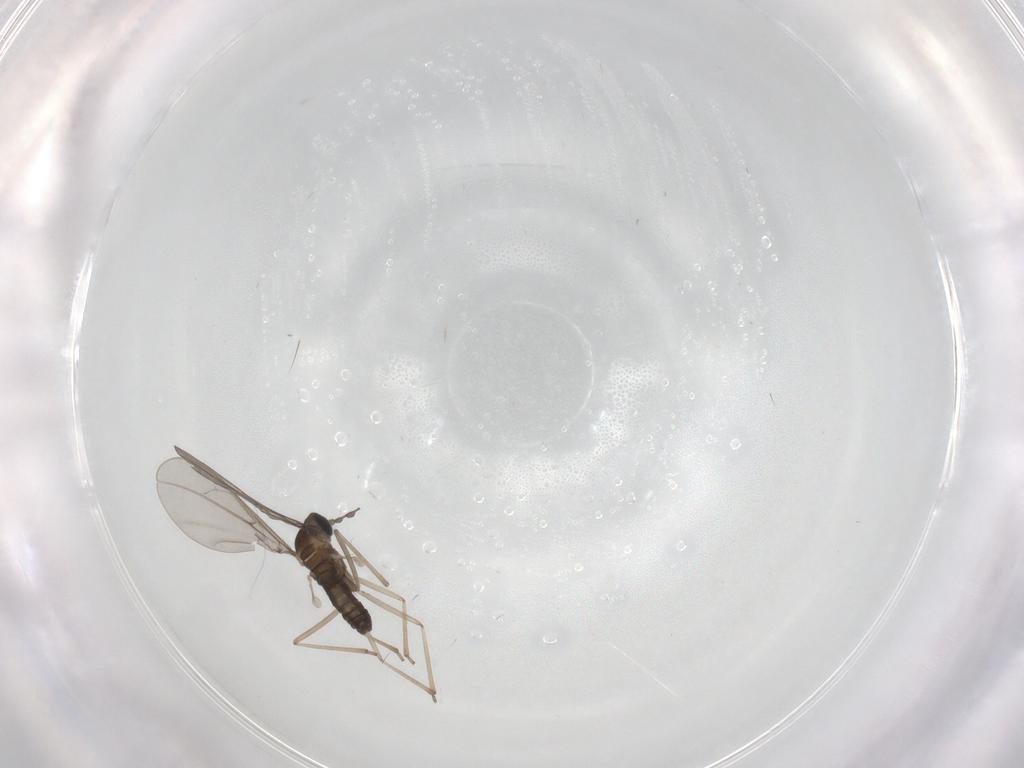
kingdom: Animalia
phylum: Arthropoda
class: Insecta
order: Diptera
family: Cecidomyiidae
